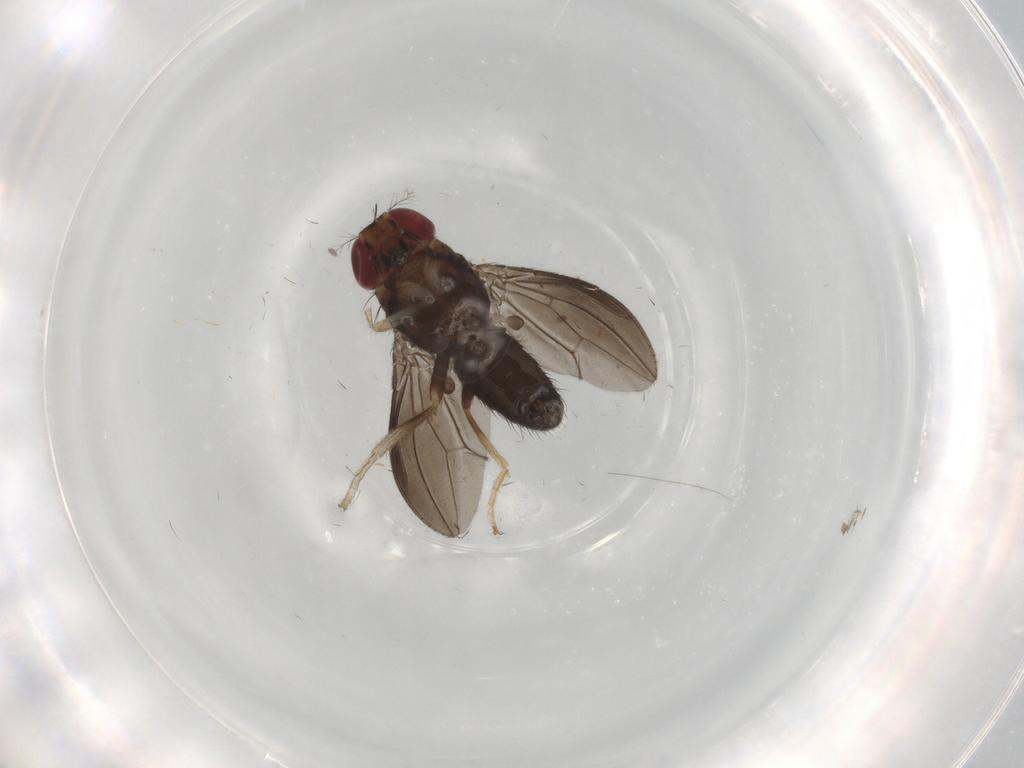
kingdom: Animalia
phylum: Arthropoda
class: Insecta
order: Diptera
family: Drosophilidae
